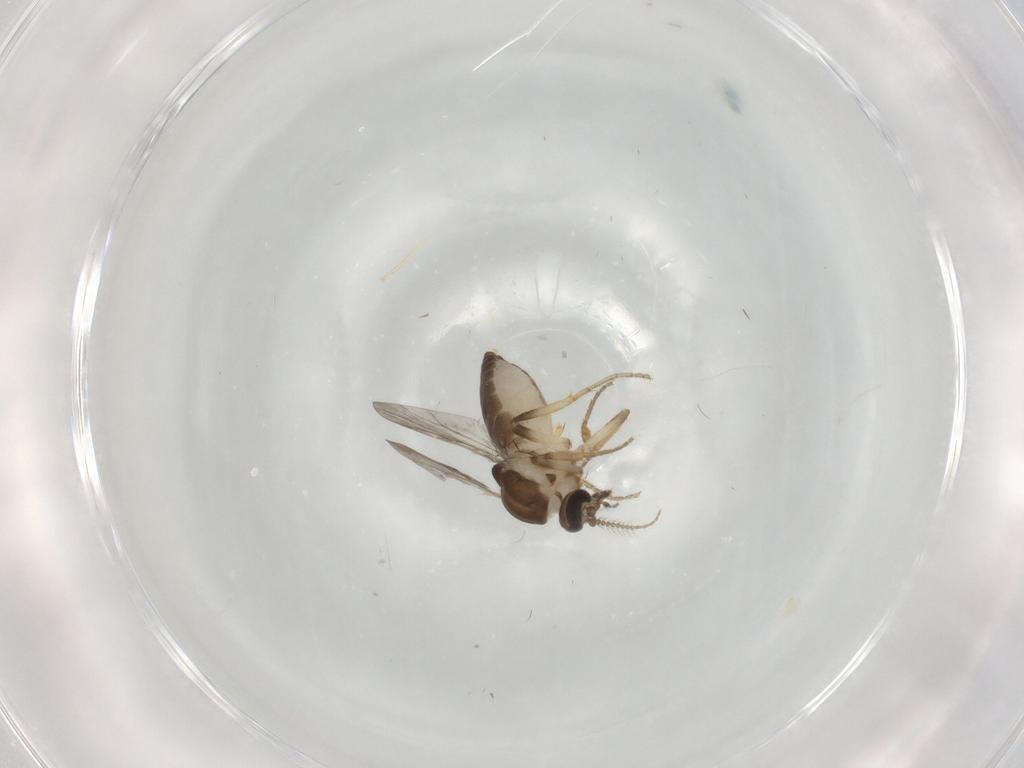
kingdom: Animalia
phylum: Arthropoda
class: Insecta
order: Diptera
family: Ceratopogonidae
